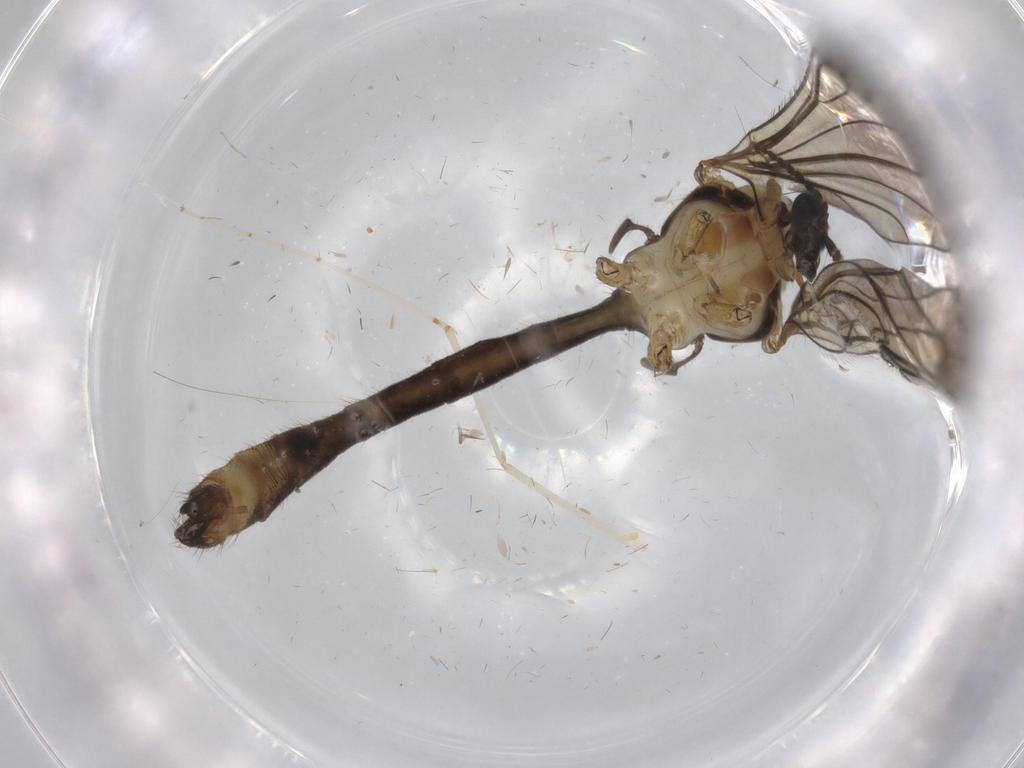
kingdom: Animalia
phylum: Arthropoda
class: Insecta
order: Diptera
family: Limoniidae
